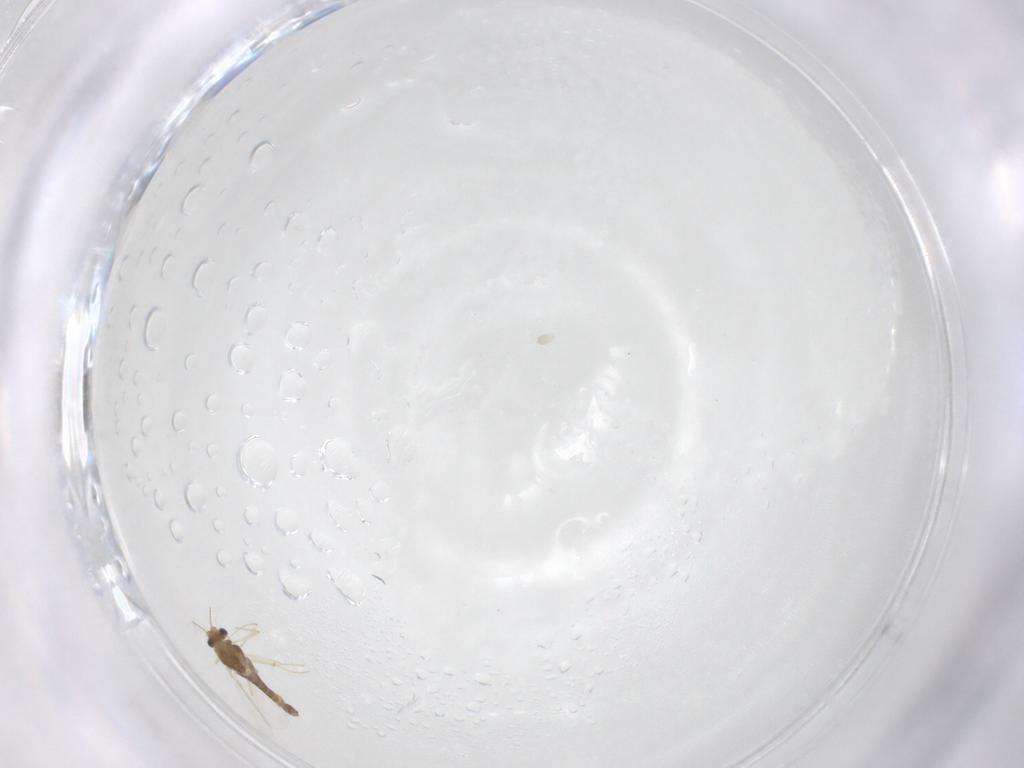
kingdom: Animalia
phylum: Arthropoda
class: Insecta
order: Diptera
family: Chironomidae
